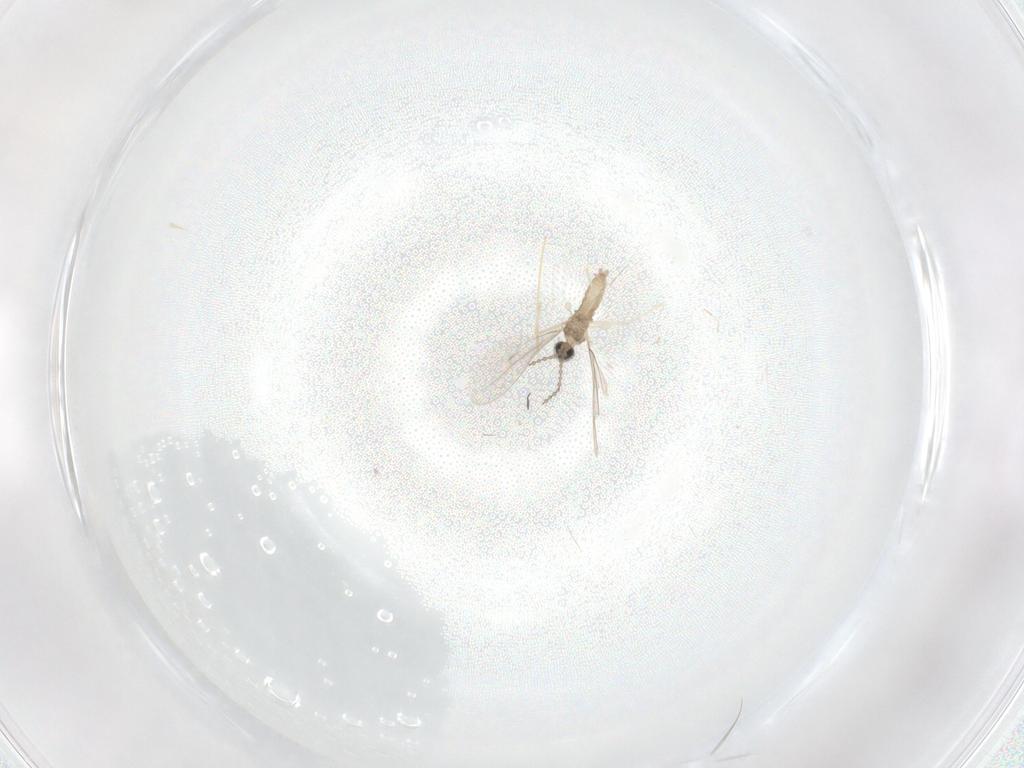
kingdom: Animalia
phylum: Arthropoda
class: Insecta
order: Diptera
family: Cecidomyiidae
